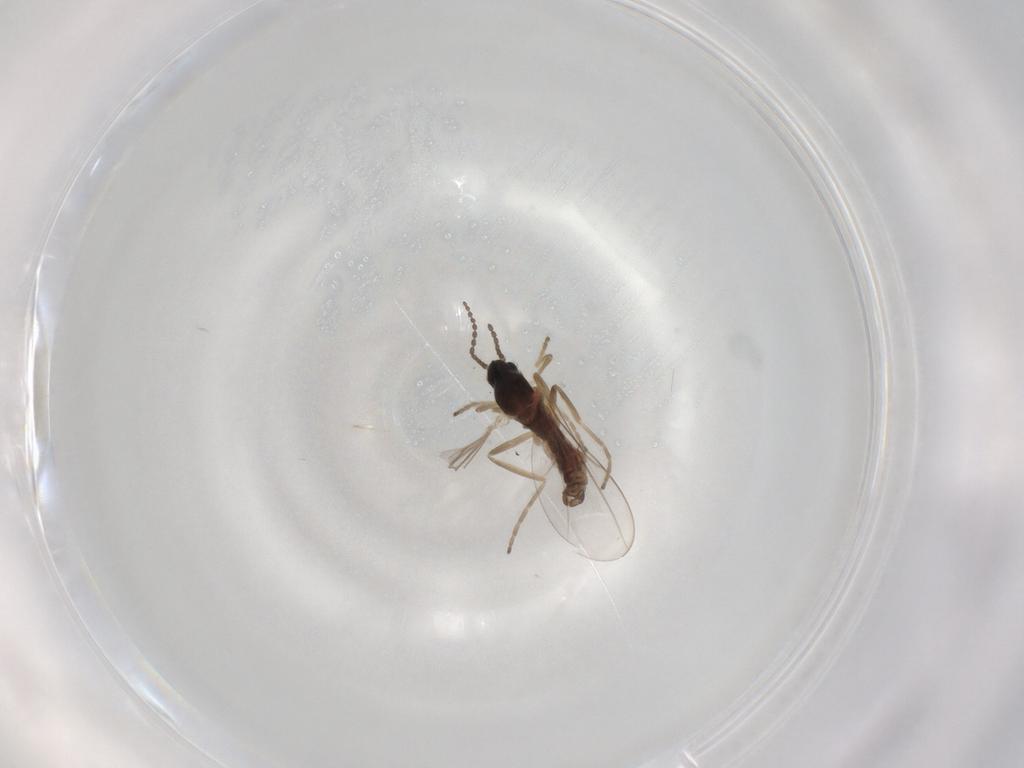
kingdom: Animalia
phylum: Arthropoda
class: Insecta
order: Diptera
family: Cecidomyiidae
